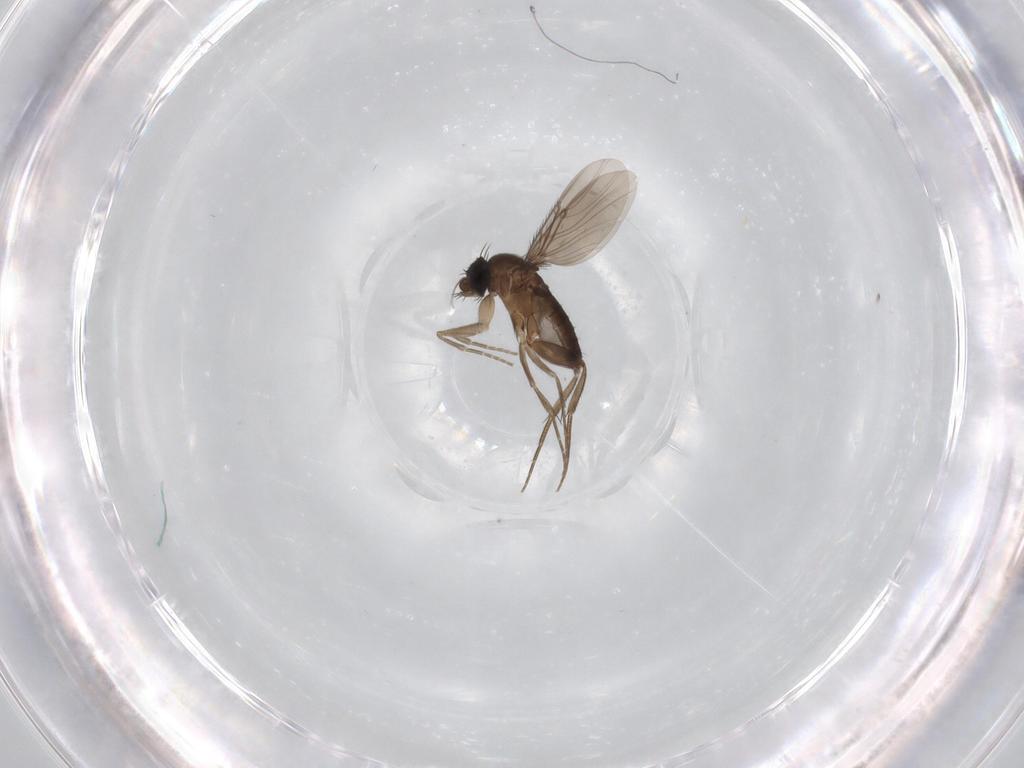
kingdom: Animalia
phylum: Arthropoda
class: Insecta
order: Diptera
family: Phoridae
